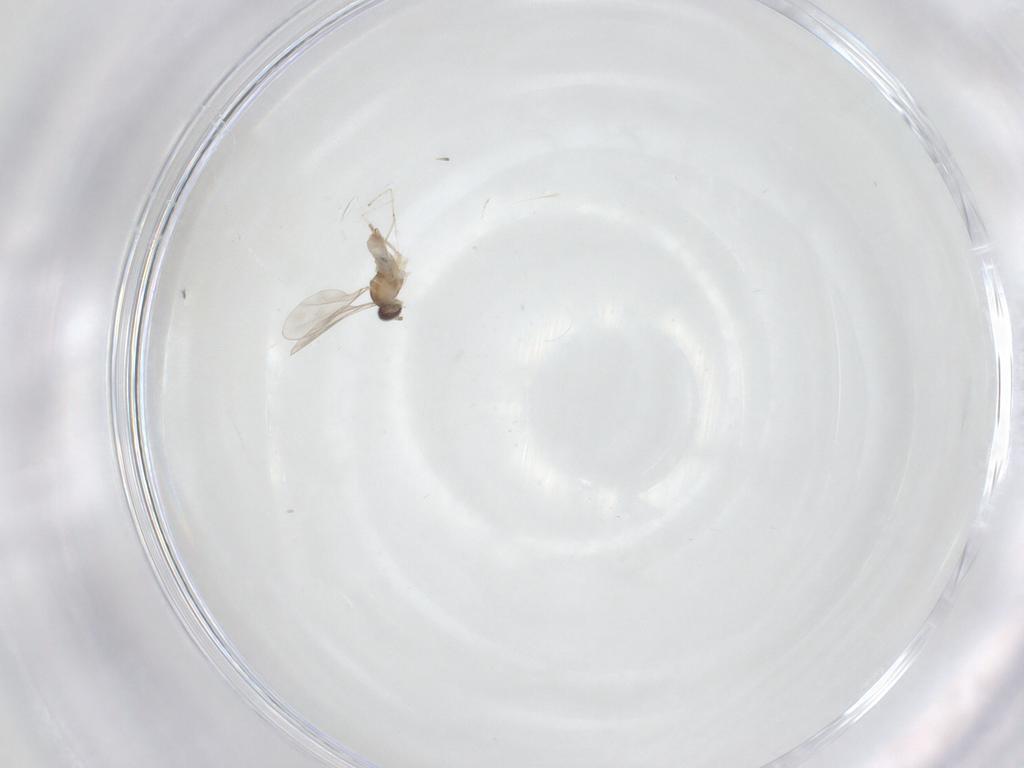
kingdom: Animalia
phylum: Arthropoda
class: Insecta
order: Diptera
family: Cecidomyiidae
